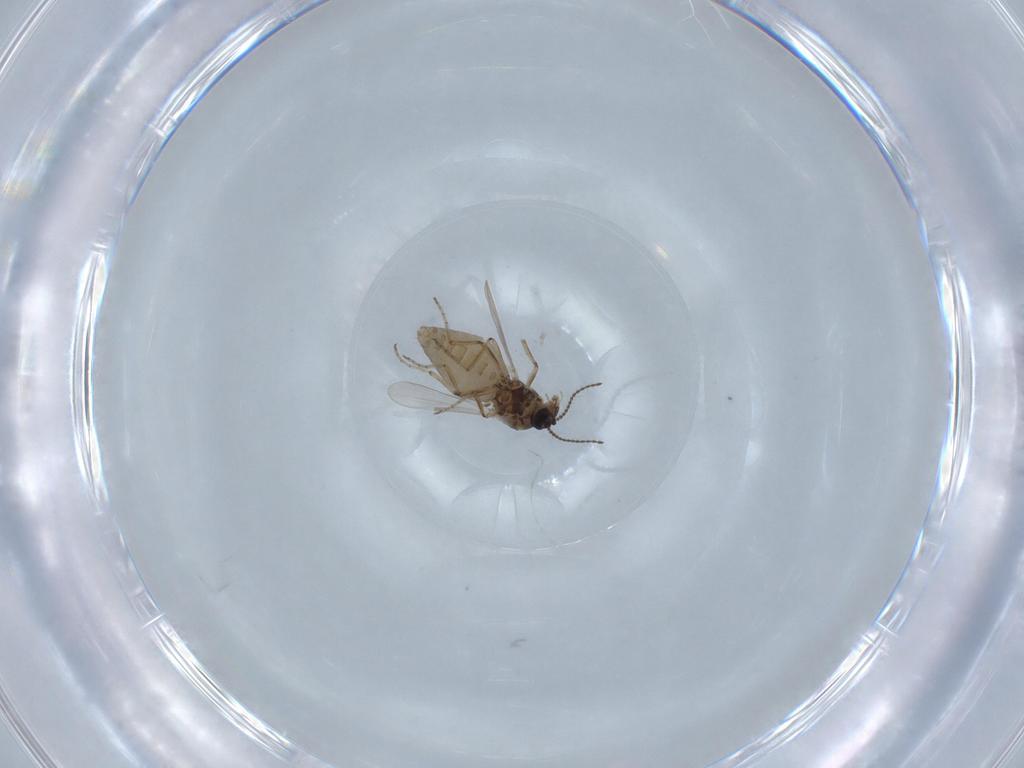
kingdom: Animalia
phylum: Arthropoda
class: Insecta
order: Diptera
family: Ceratopogonidae
